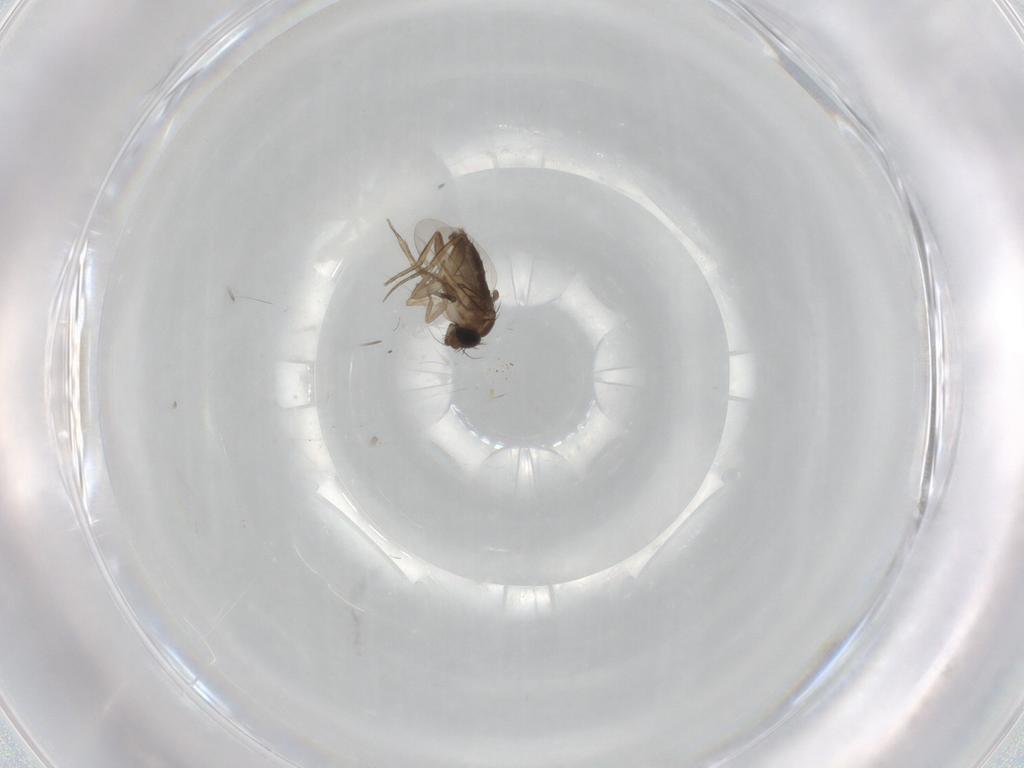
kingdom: Animalia
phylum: Arthropoda
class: Insecta
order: Diptera
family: Phoridae
